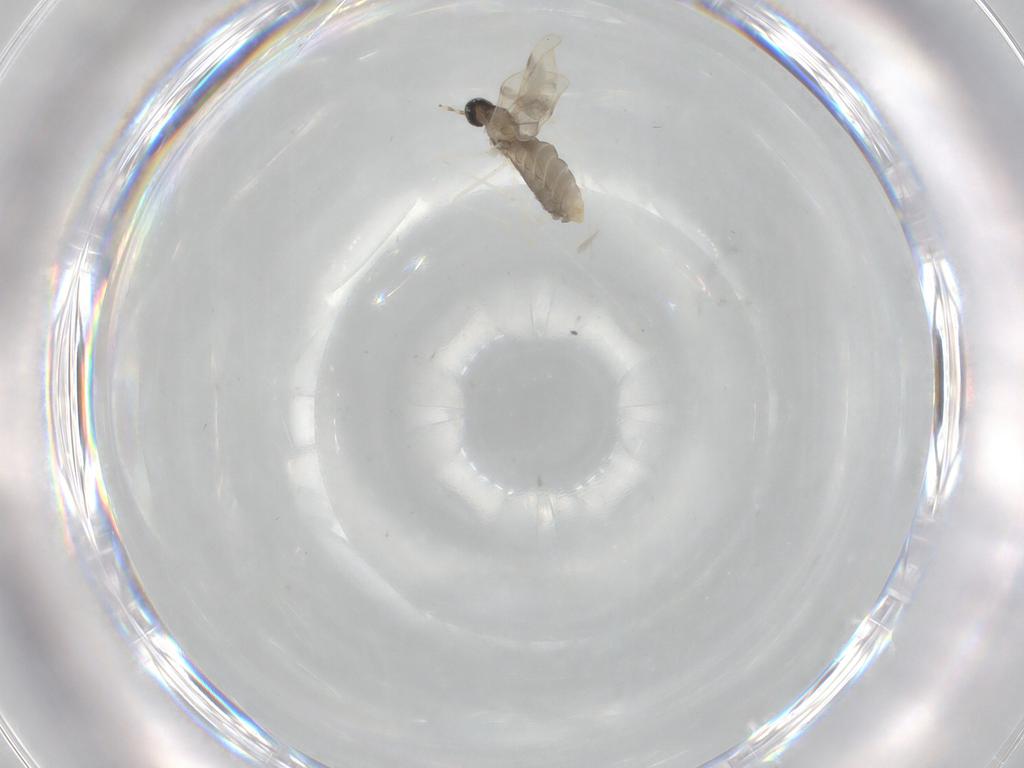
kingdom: Animalia
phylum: Arthropoda
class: Insecta
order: Diptera
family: Cecidomyiidae
